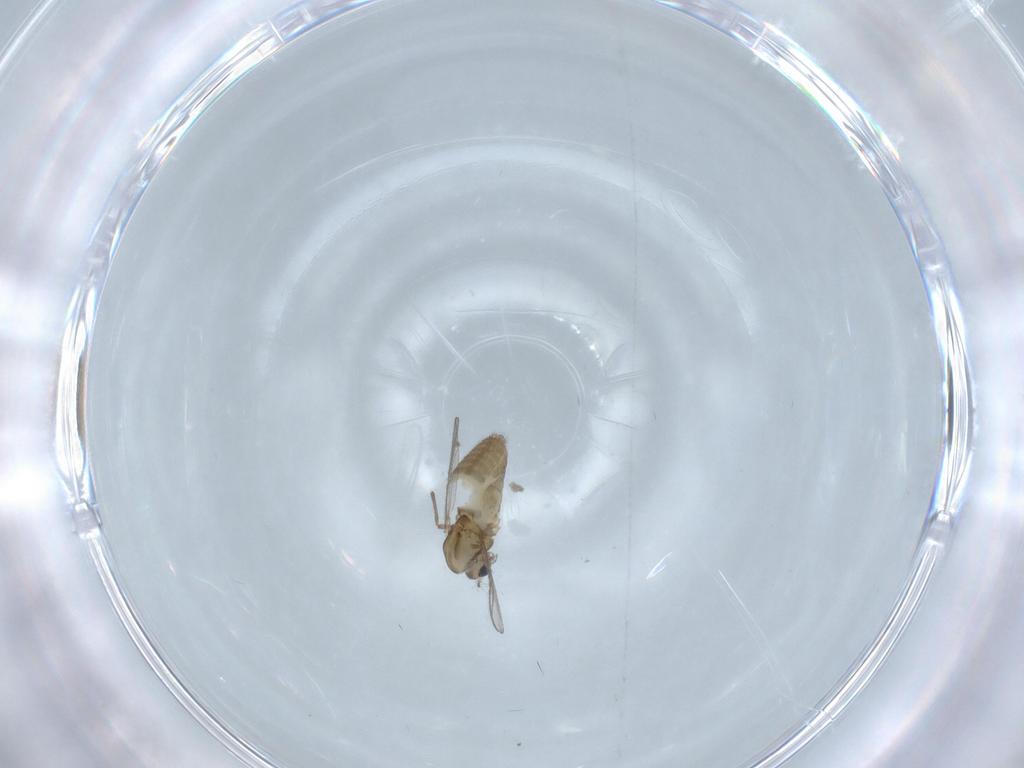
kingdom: Animalia
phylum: Arthropoda
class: Insecta
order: Diptera
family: Chironomidae
